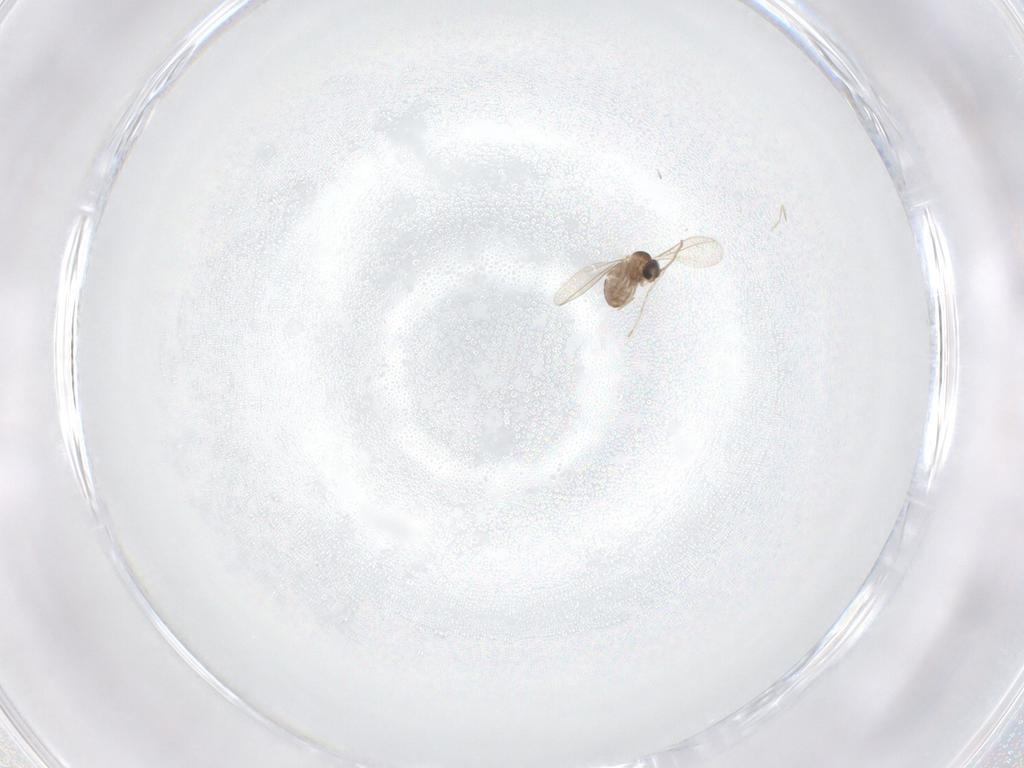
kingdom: Animalia
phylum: Arthropoda
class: Insecta
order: Diptera
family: Cecidomyiidae
